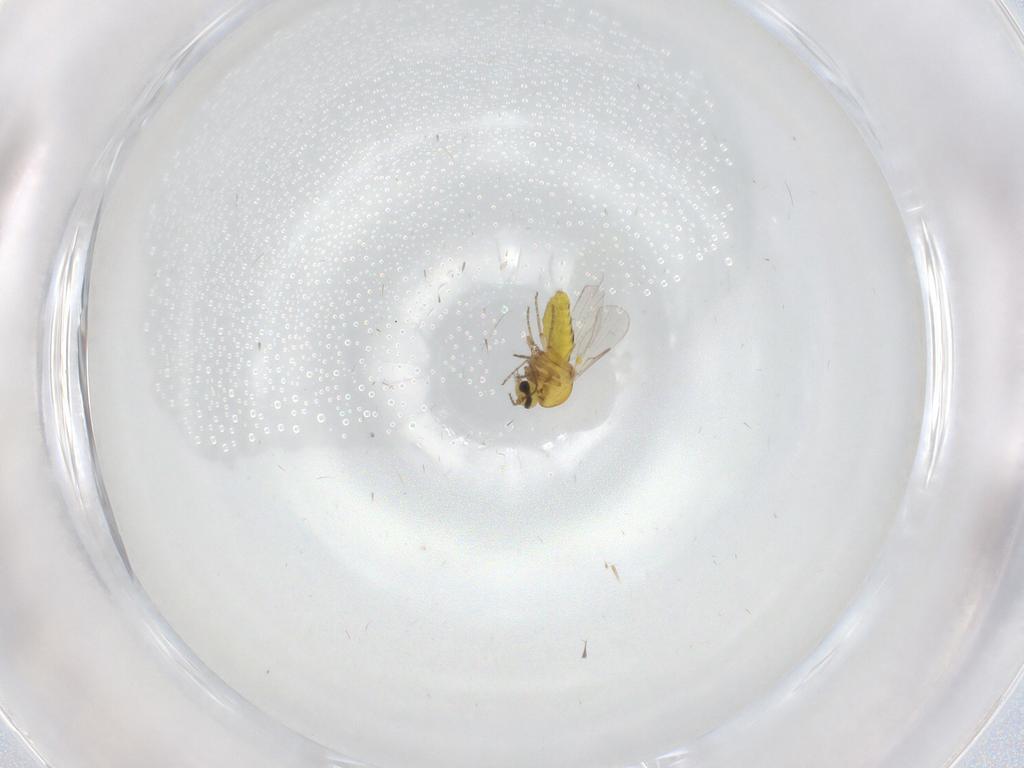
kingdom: Animalia
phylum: Arthropoda
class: Insecta
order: Diptera
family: Ceratopogonidae
